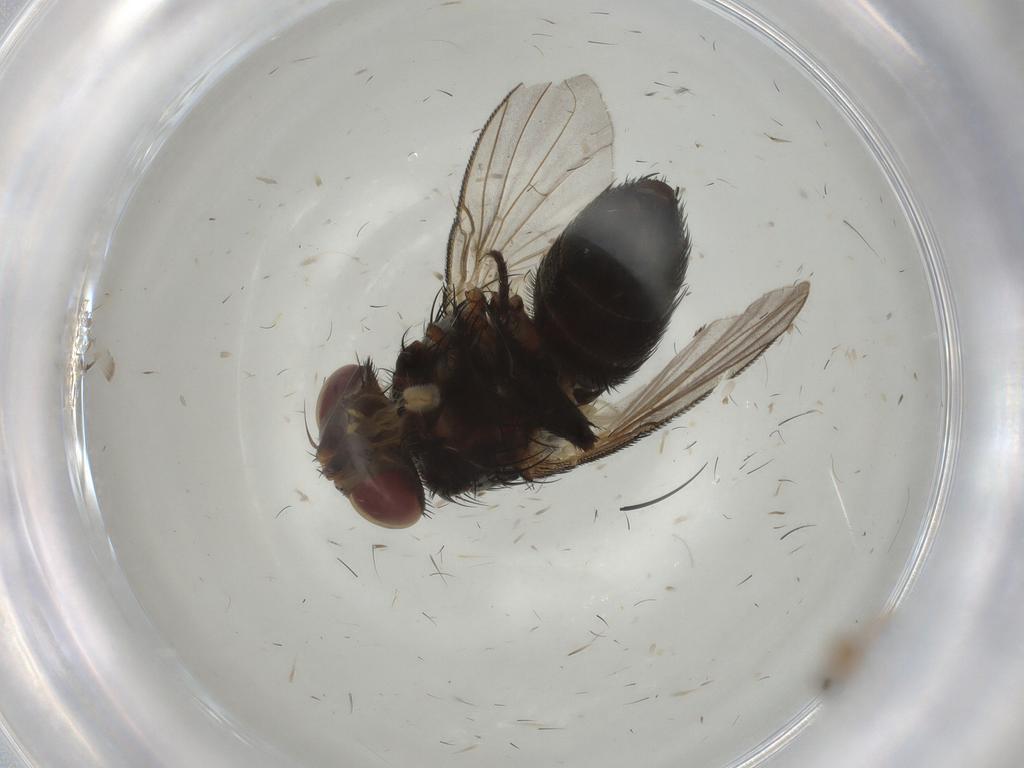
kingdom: Animalia
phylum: Arthropoda
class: Insecta
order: Diptera
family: Tachinidae
